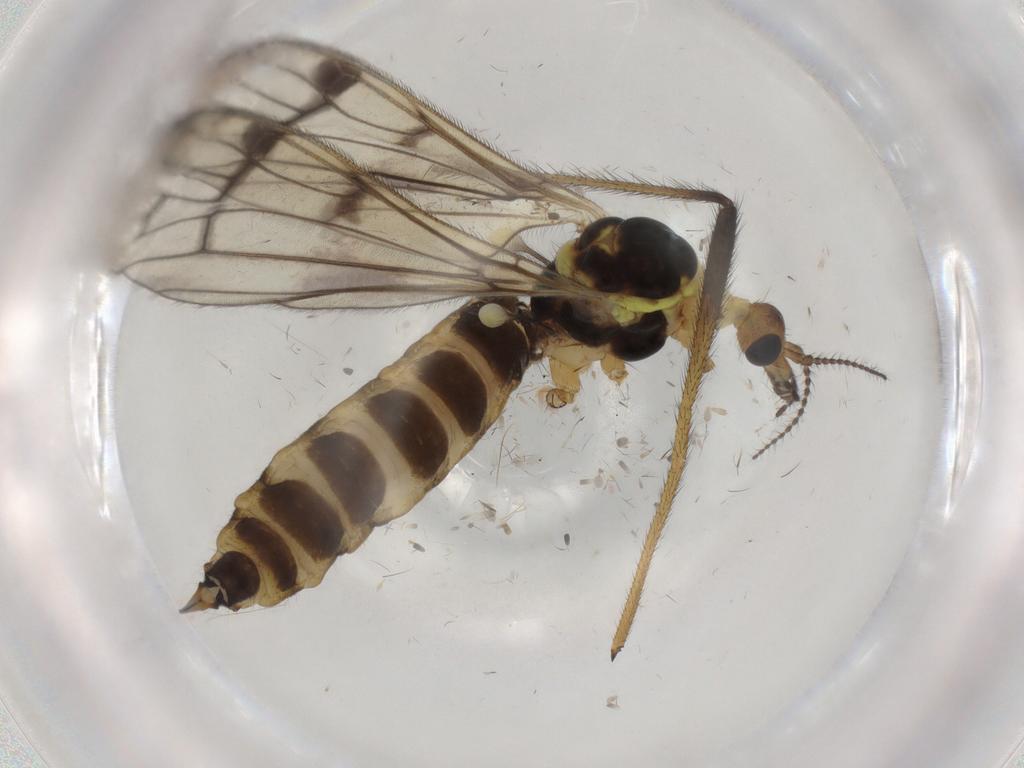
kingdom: Animalia
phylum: Arthropoda
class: Insecta
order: Diptera
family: Limoniidae
